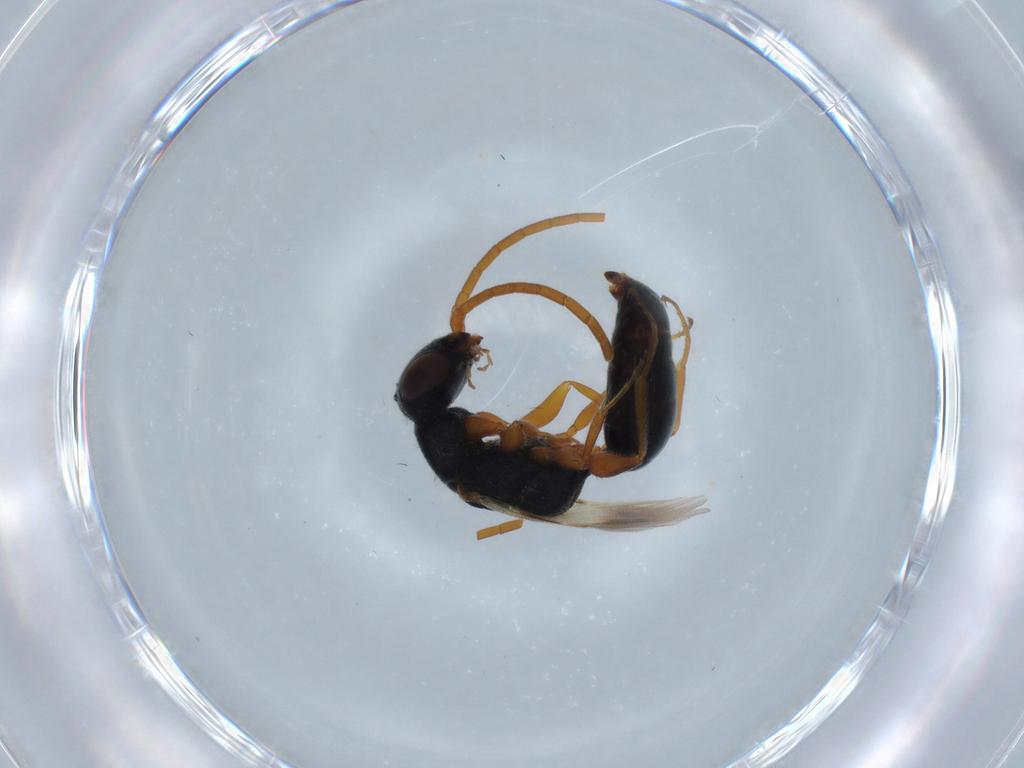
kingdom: Animalia
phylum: Arthropoda
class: Insecta
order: Hymenoptera
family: Bethylidae
